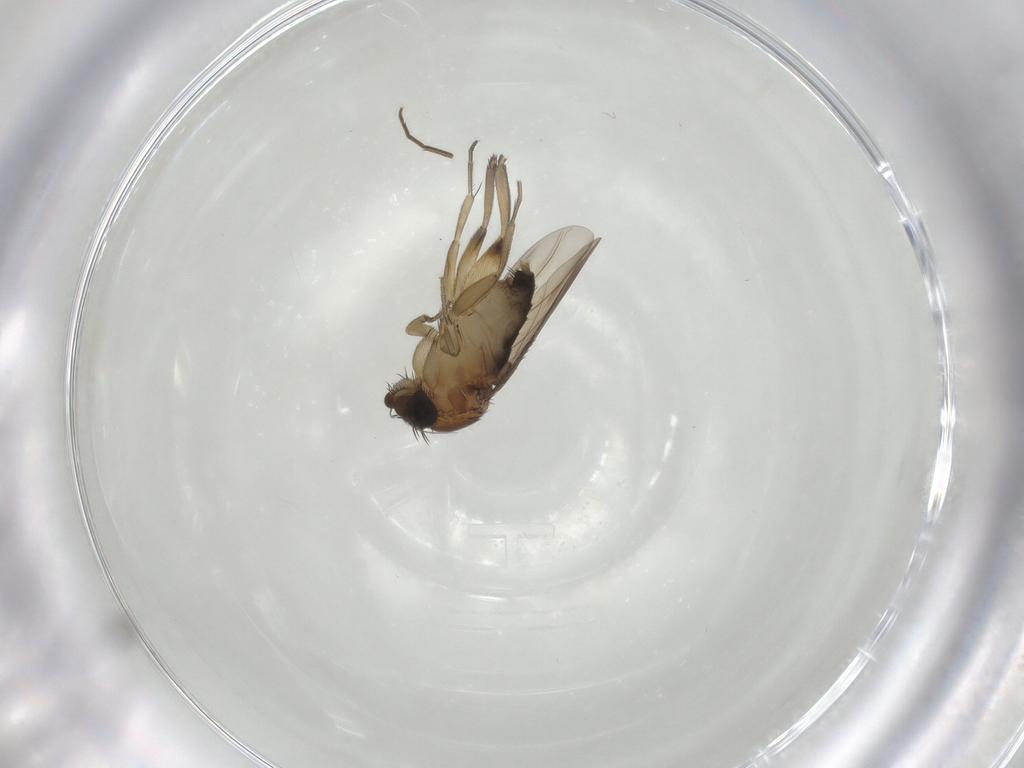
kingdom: Animalia
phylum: Arthropoda
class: Insecta
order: Diptera
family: Phoridae
